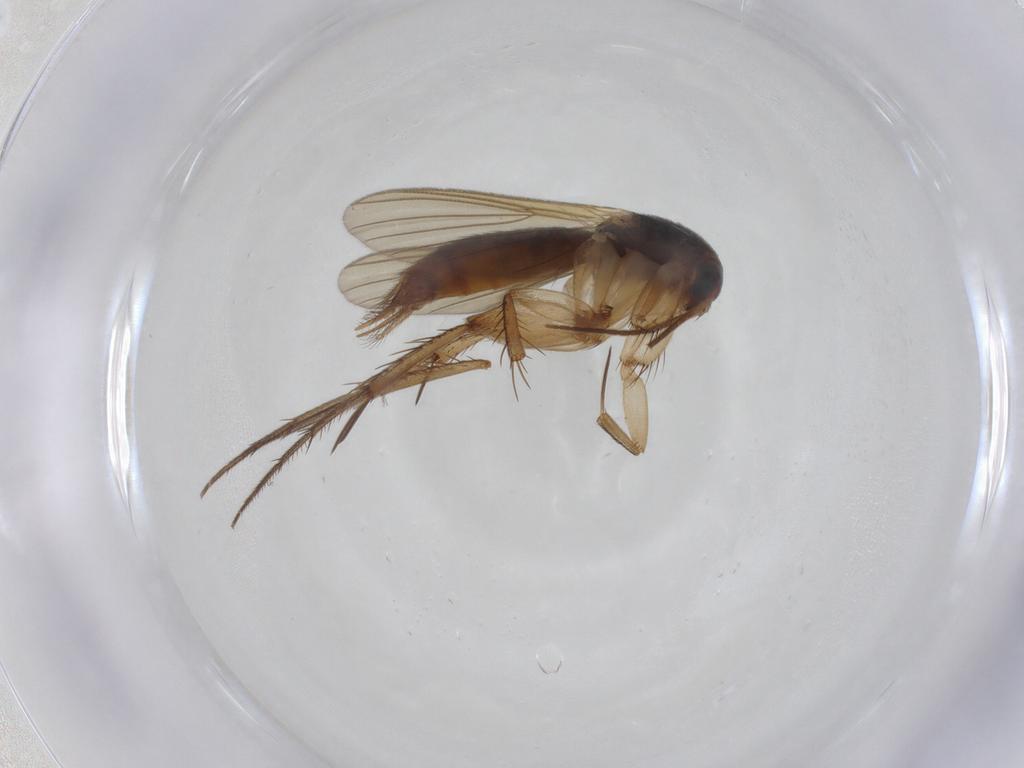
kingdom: Animalia
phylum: Arthropoda
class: Insecta
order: Diptera
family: Mycetophilidae
